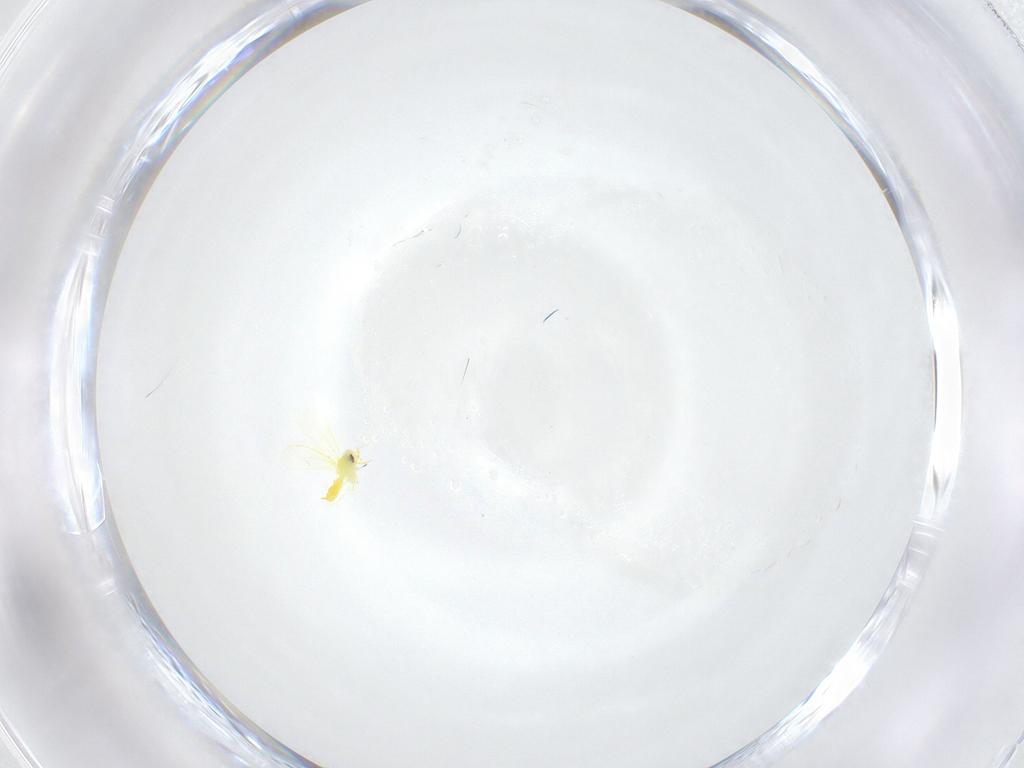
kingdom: Animalia
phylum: Arthropoda
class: Insecta
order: Hemiptera
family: Aleyrodidae
